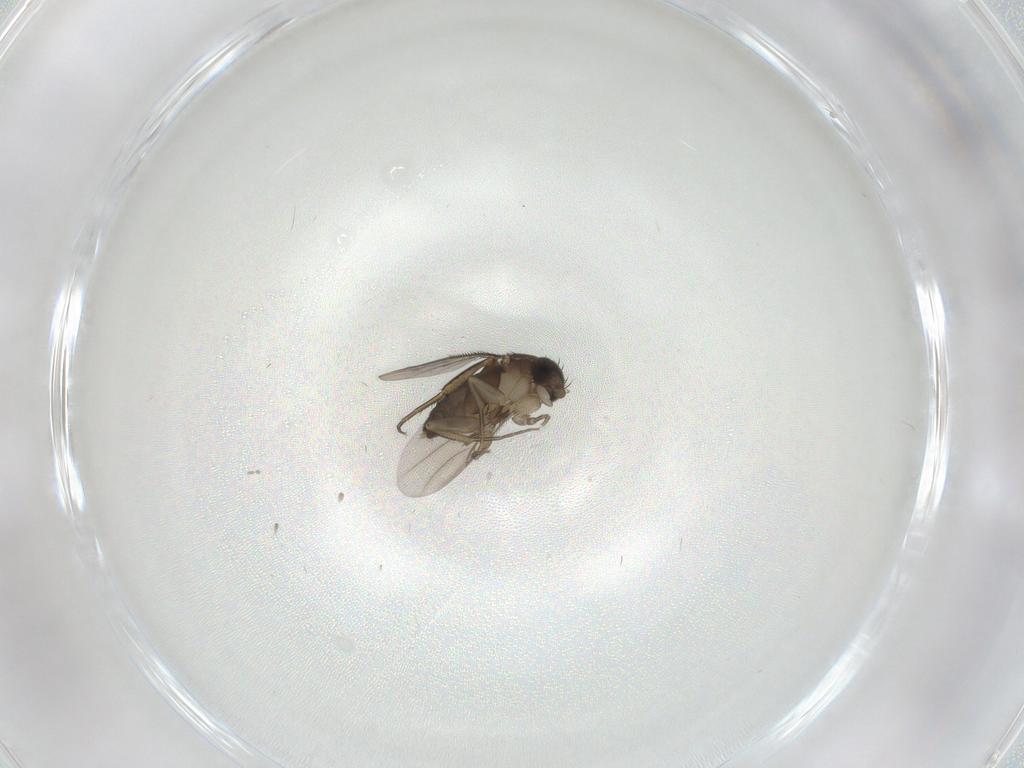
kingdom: Animalia
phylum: Arthropoda
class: Insecta
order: Diptera
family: Phoridae
